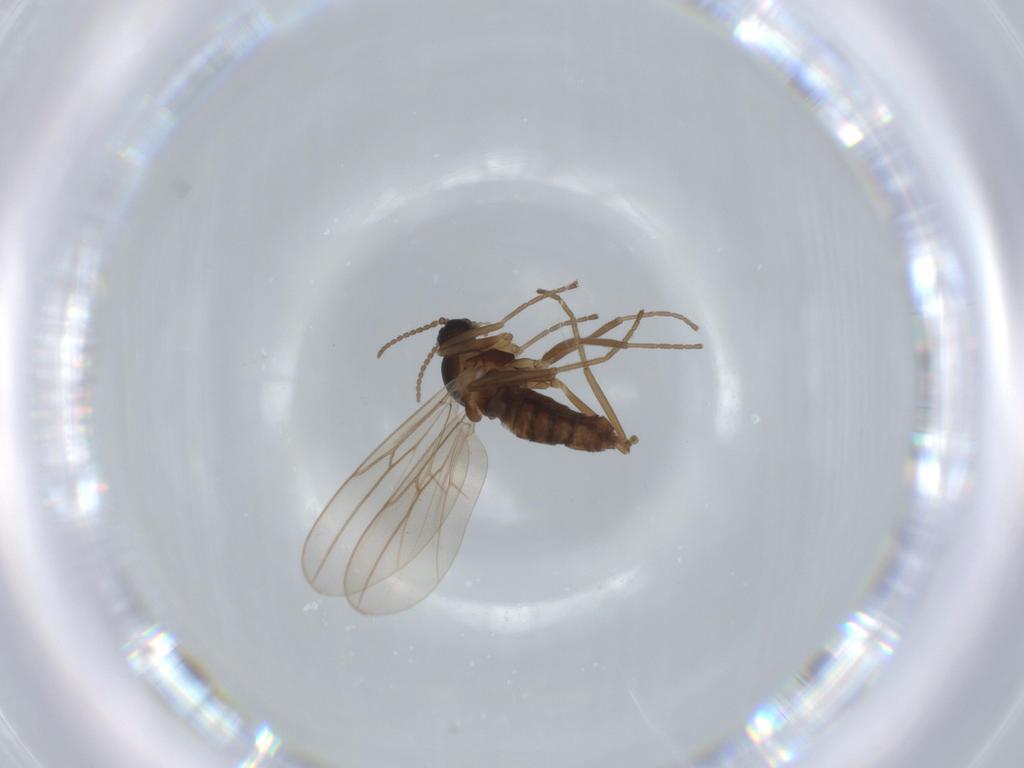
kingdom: Animalia
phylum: Arthropoda
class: Insecta
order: Diptera
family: Cecidomyiidae
